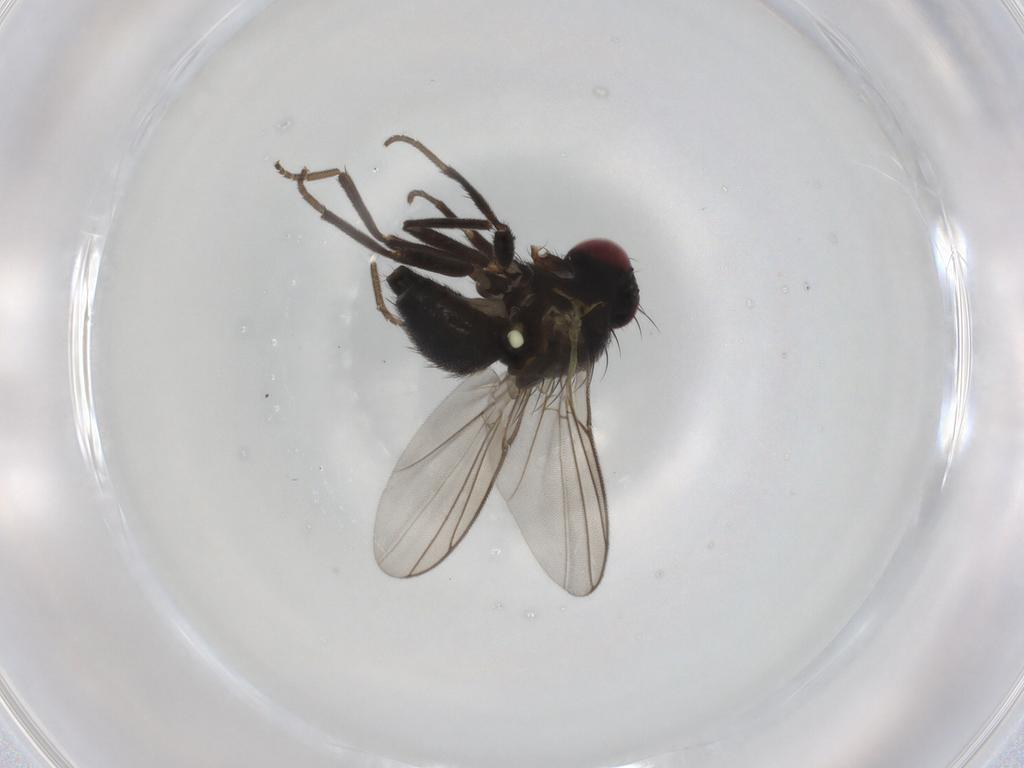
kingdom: Animalia
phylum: Arthropoda
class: Insecta
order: Diptera
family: Agromyzidae
